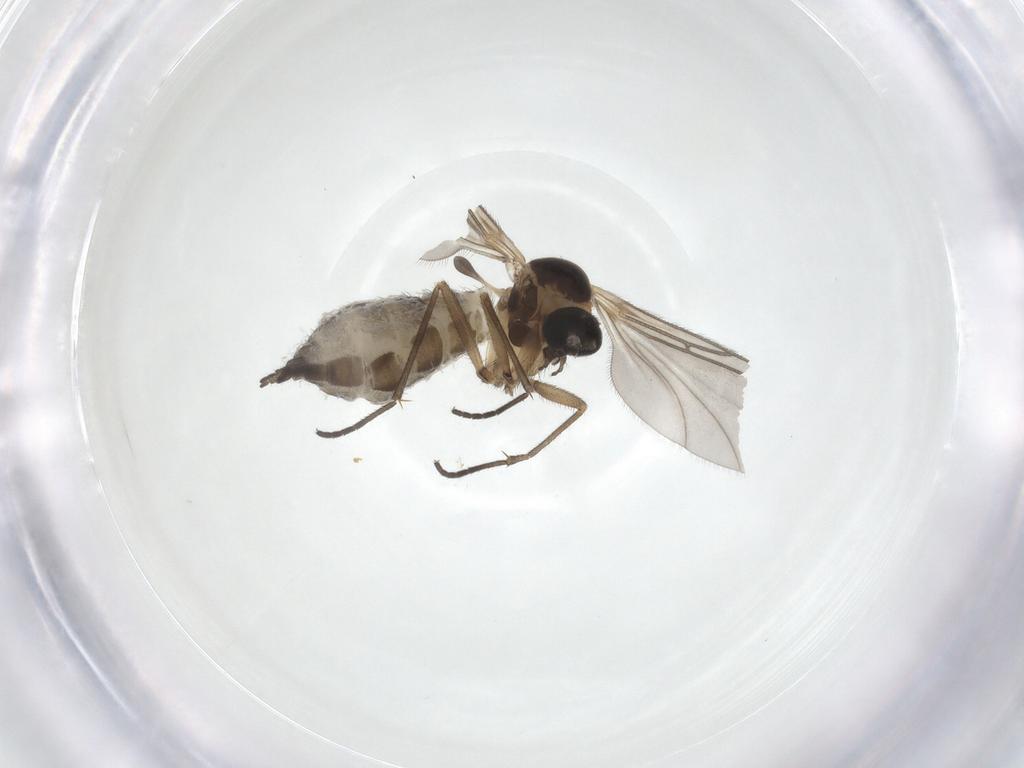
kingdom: Animalia
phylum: Arthropoda
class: Insecta
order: Diptera
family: Sciaridae
